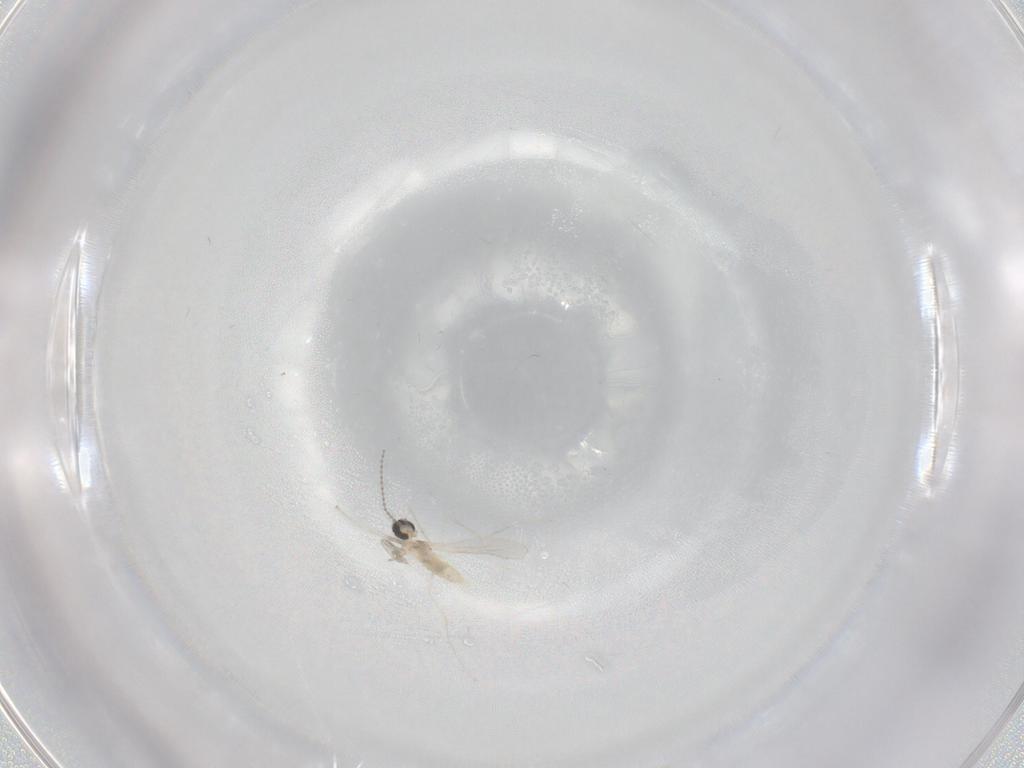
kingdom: Animalia
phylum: Arthropoda
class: Insecta
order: Diptera
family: Cecidomyiidae
